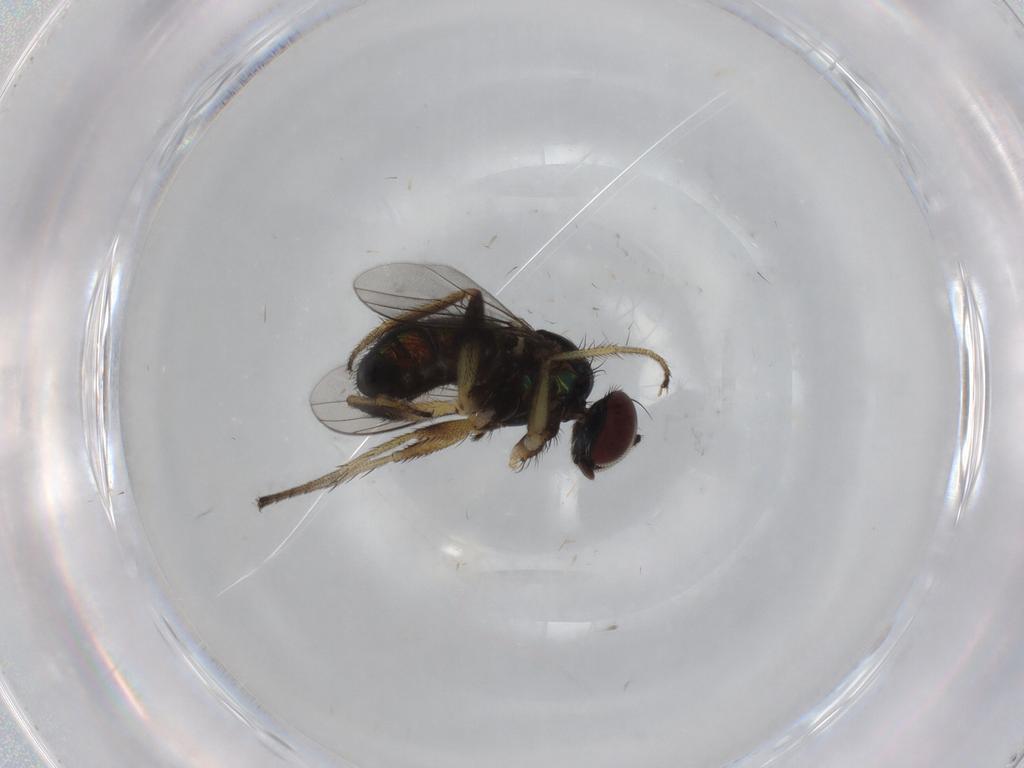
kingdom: Animalia
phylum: Arthropoda
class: Insecta
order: Diptera
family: Dolichopodidae
